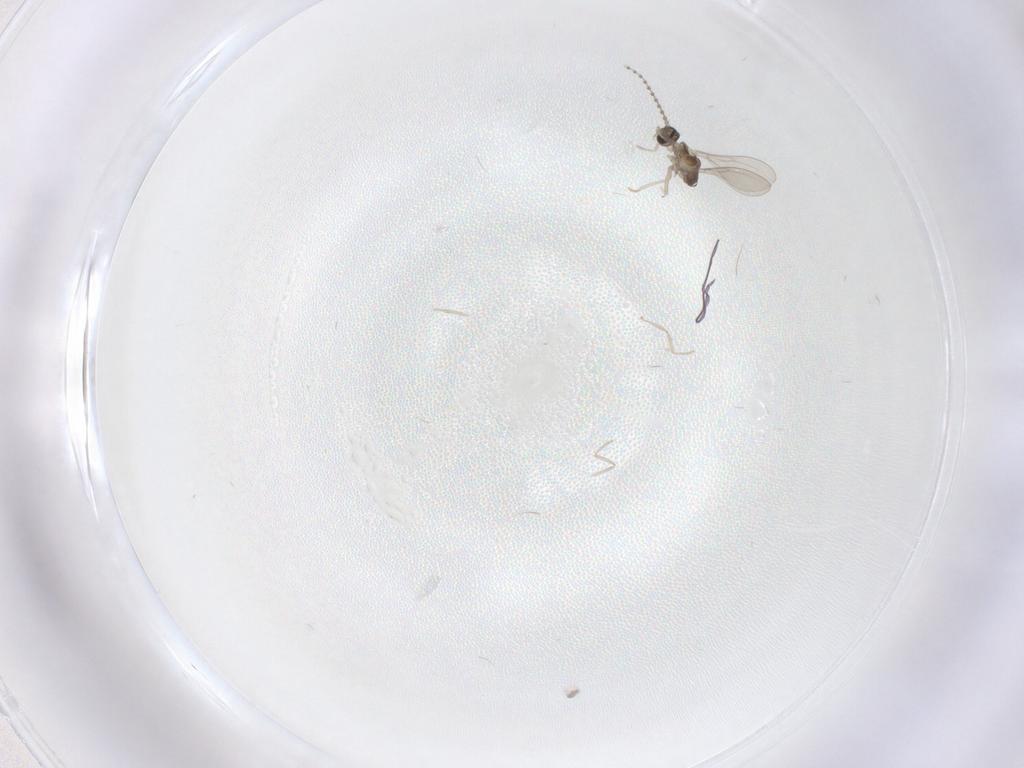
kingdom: Animalia
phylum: Arthropoda
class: Insecta
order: Diptera
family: Cecidomyiidae
